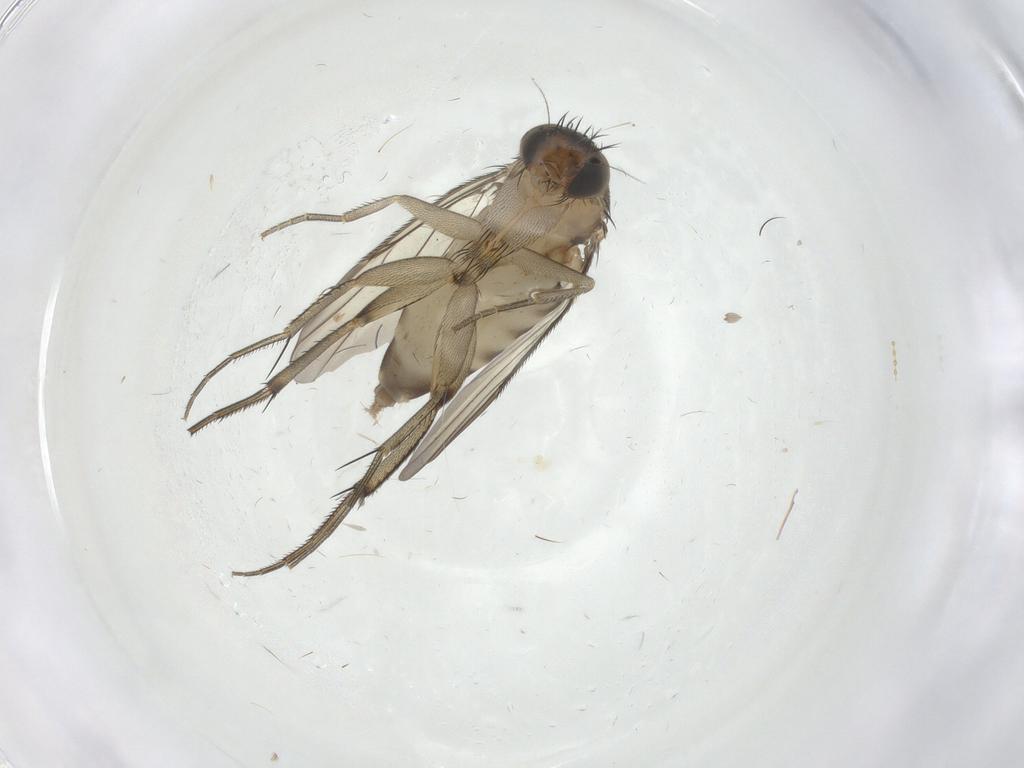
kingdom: Animalia
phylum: Arthropoda
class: Insecta
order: Diptera
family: Phoridae
